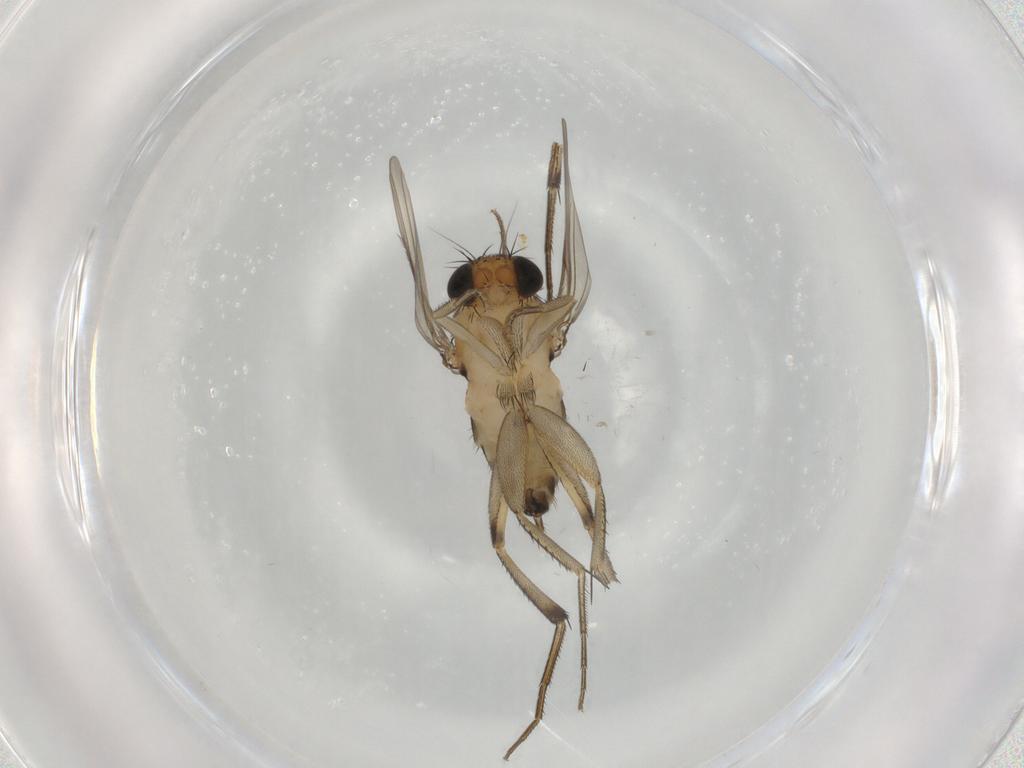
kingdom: Animalia
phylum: Arthropoda
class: Insecta
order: Diptera
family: Phoridae
